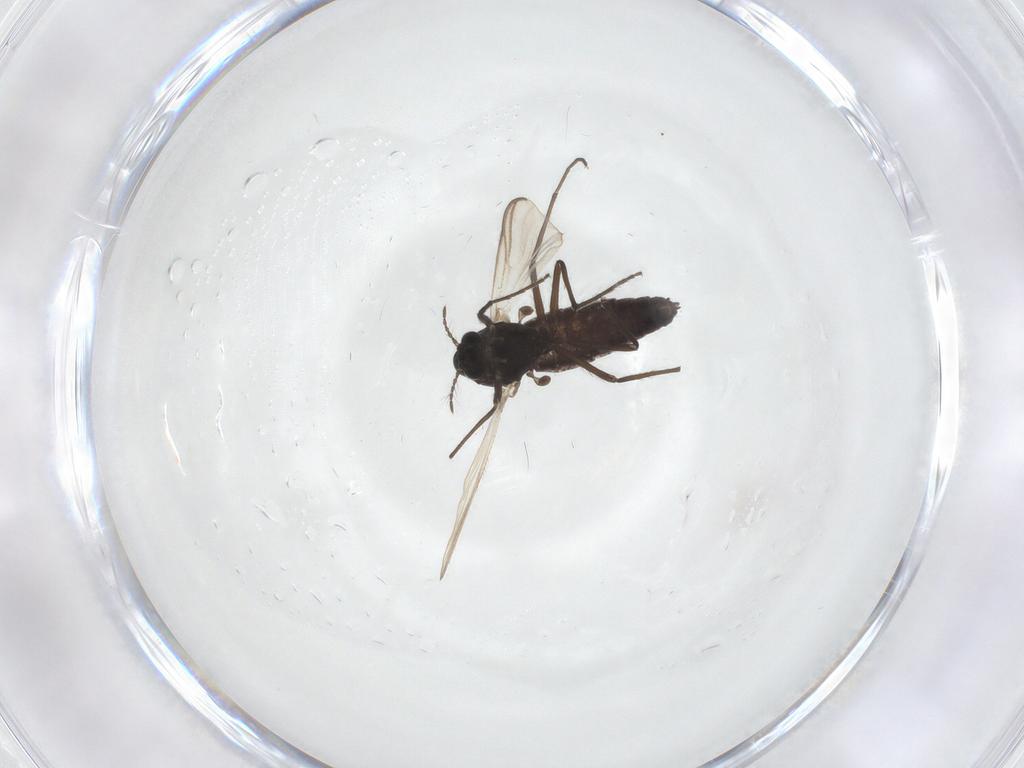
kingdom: Animalia
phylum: Arthropoda
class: Insecta
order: Diptera
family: Chironomidae
